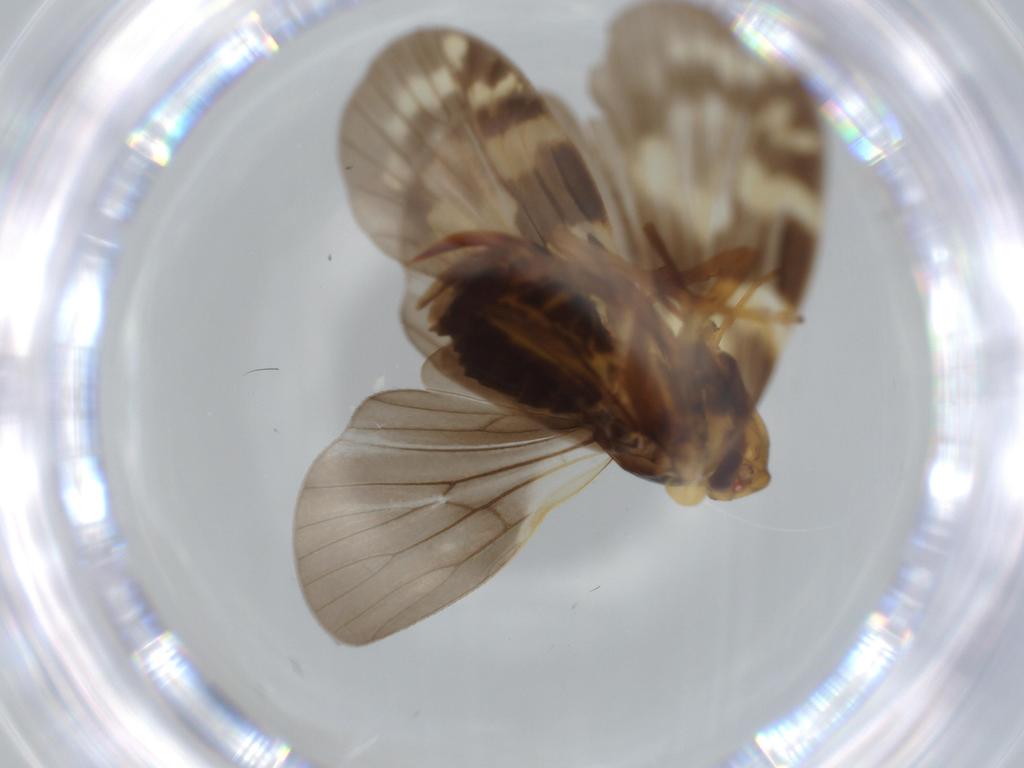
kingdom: Animalia
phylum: Arthropoda
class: Insecta
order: Hemiptera
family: Cixiidae
